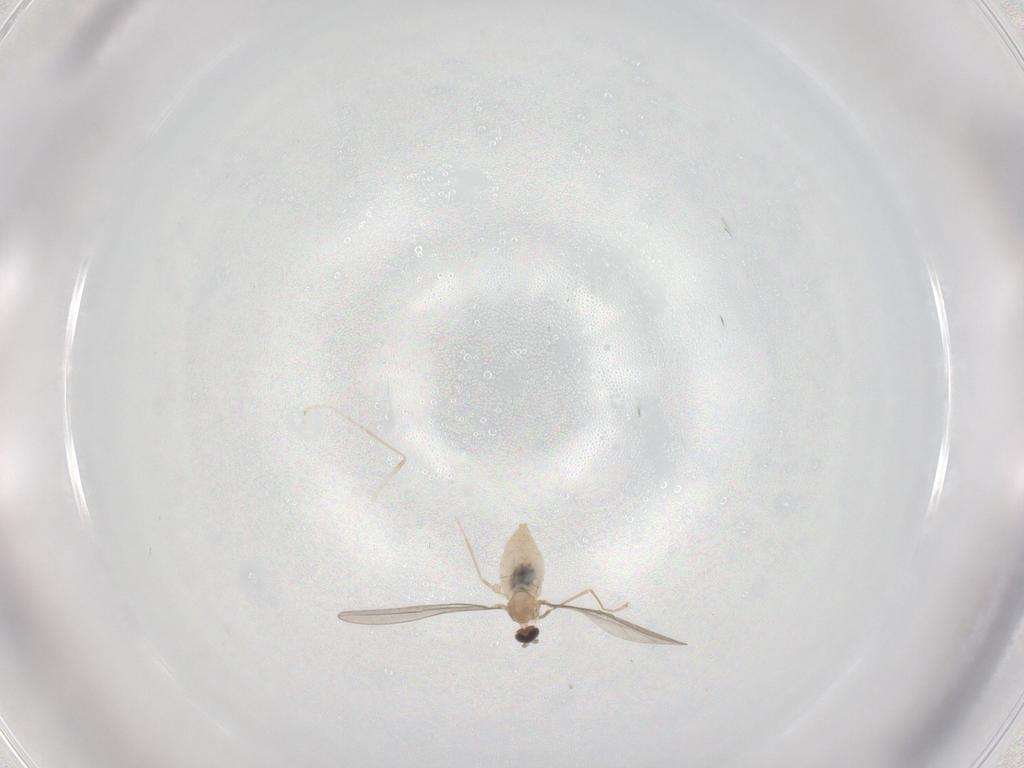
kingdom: Animalia
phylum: Arthropoda
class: Insecta
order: Diptera
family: Cecidomyiidae
